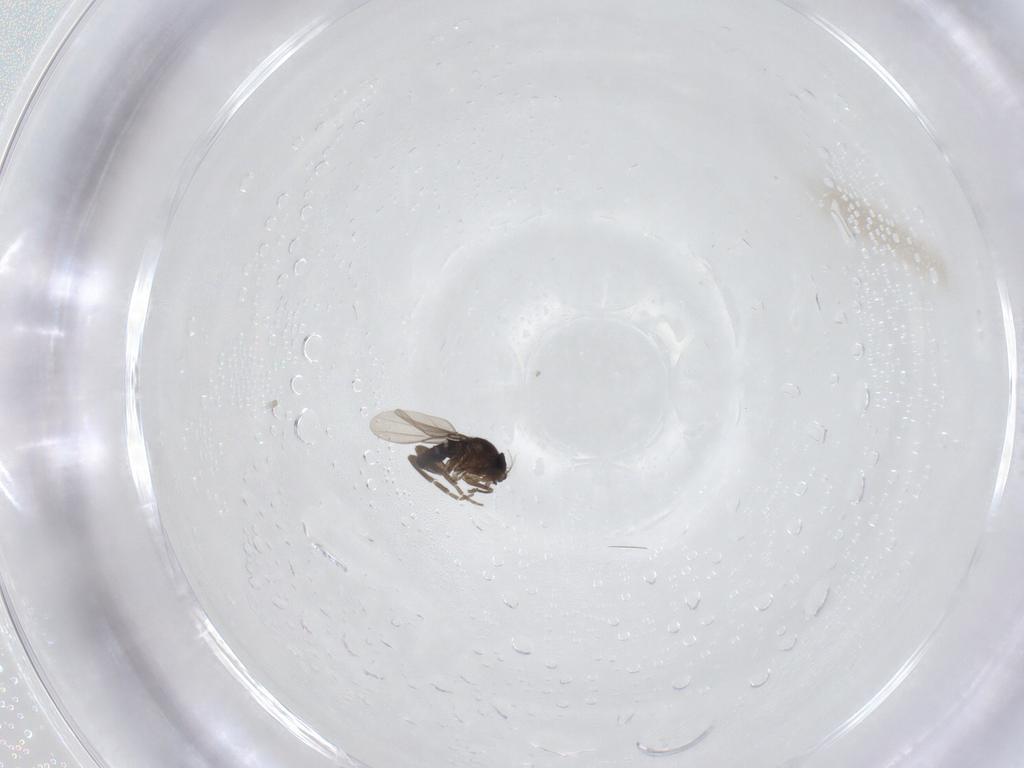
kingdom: Animalia
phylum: Arthropoda
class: Insecta
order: Diptera
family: Phoridae
